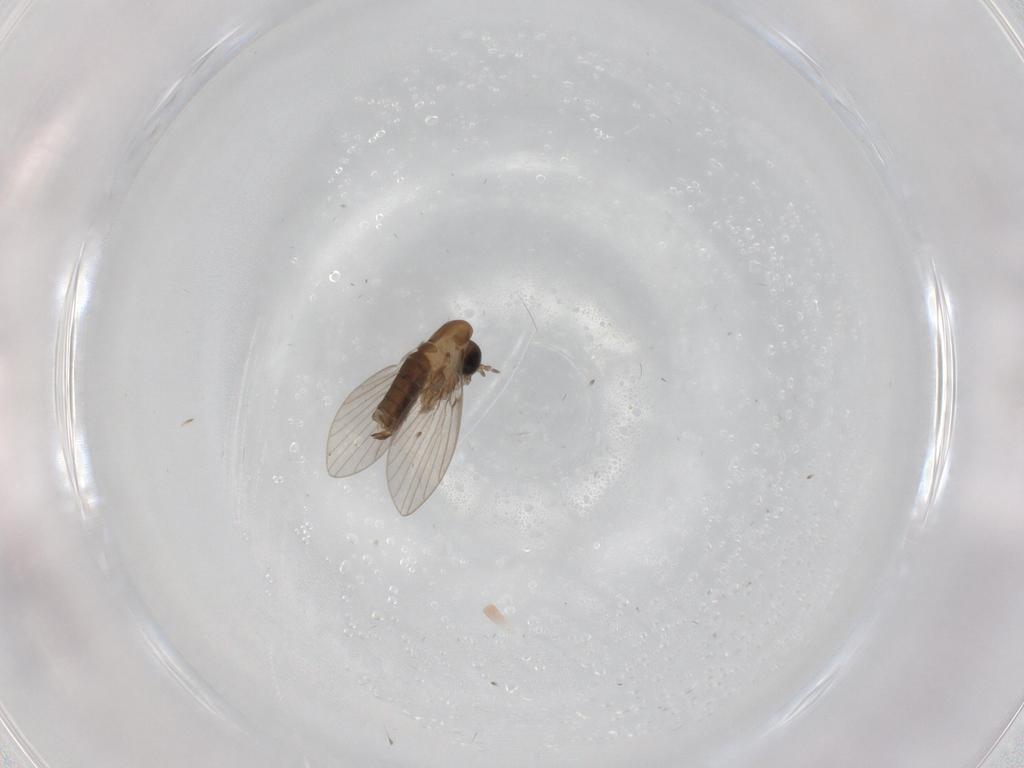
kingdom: Animalia
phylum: Arthropoda
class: Insecta
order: Diptera
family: Psychodidae
